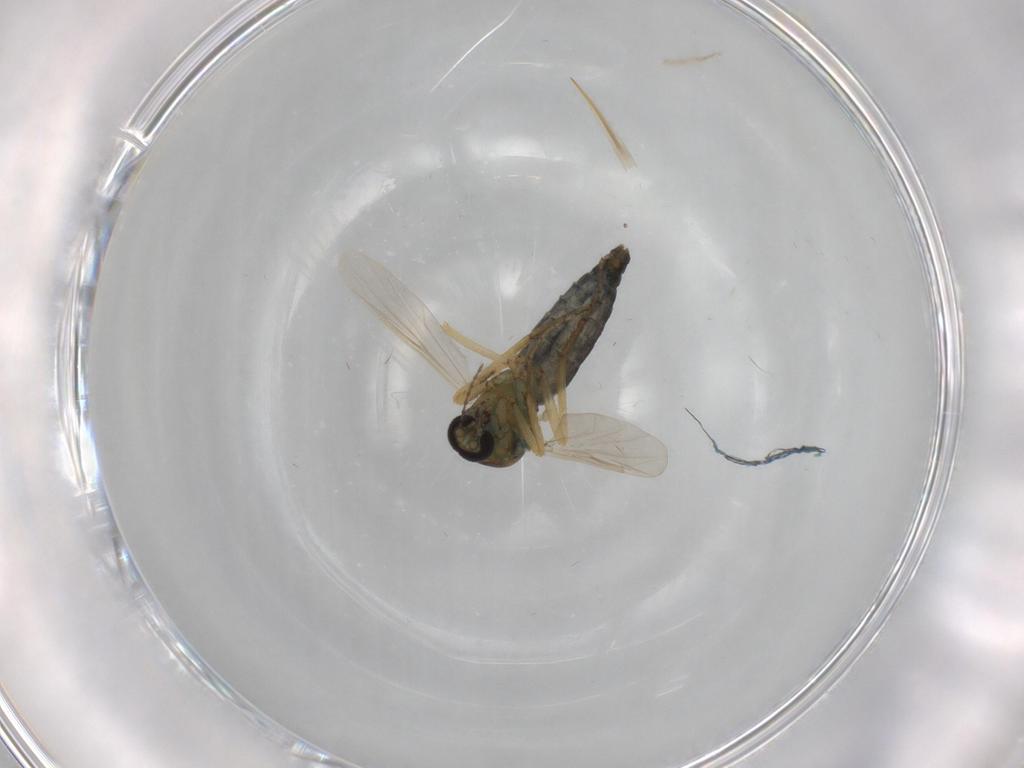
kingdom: Animalia
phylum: Arthropoda
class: Insecta
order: Diptera
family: Ceratopogonidae
